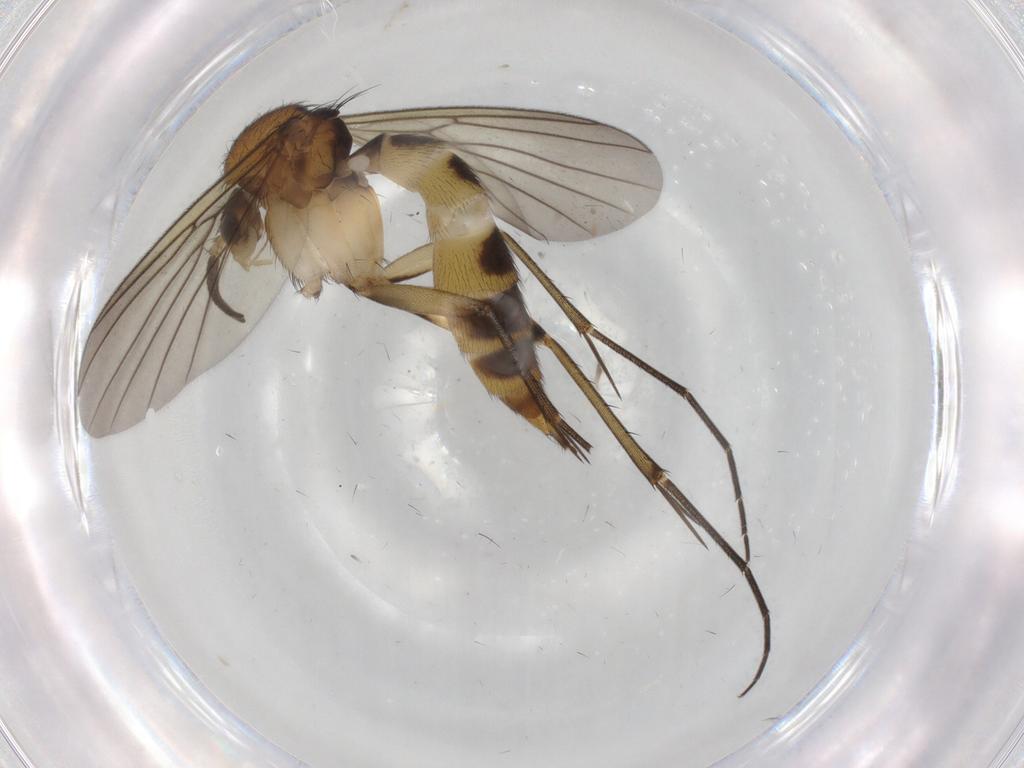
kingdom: Animalia
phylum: Arthropoda
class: Insecta
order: Diptera
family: Mycetophilidae
